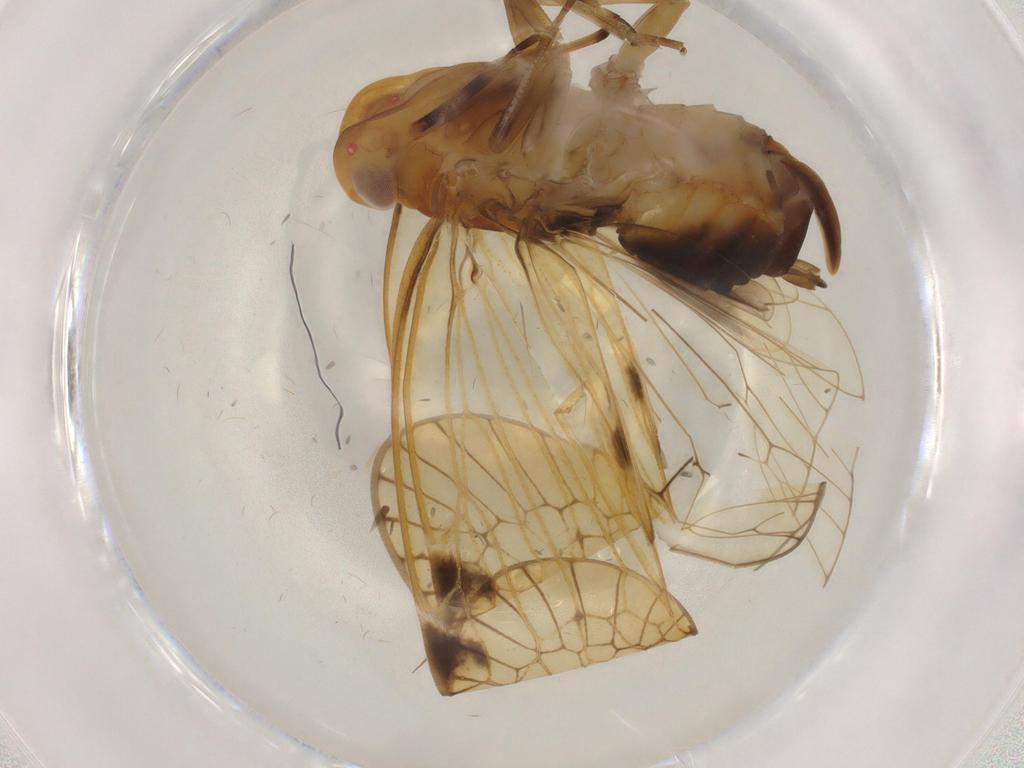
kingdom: Animalia
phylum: Arthropoda
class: Insecta
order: Hemiptera
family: Cixiidae
